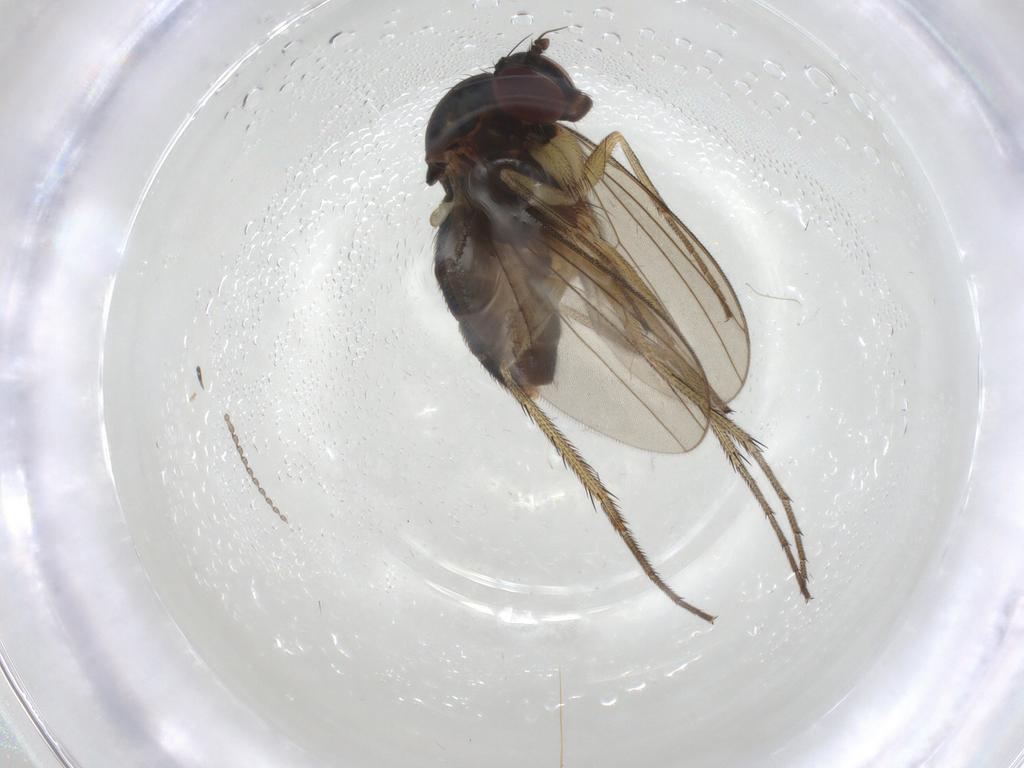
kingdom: Animalia
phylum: Arthropoda
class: Insecta
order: Diptera
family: Dolichopodidae
